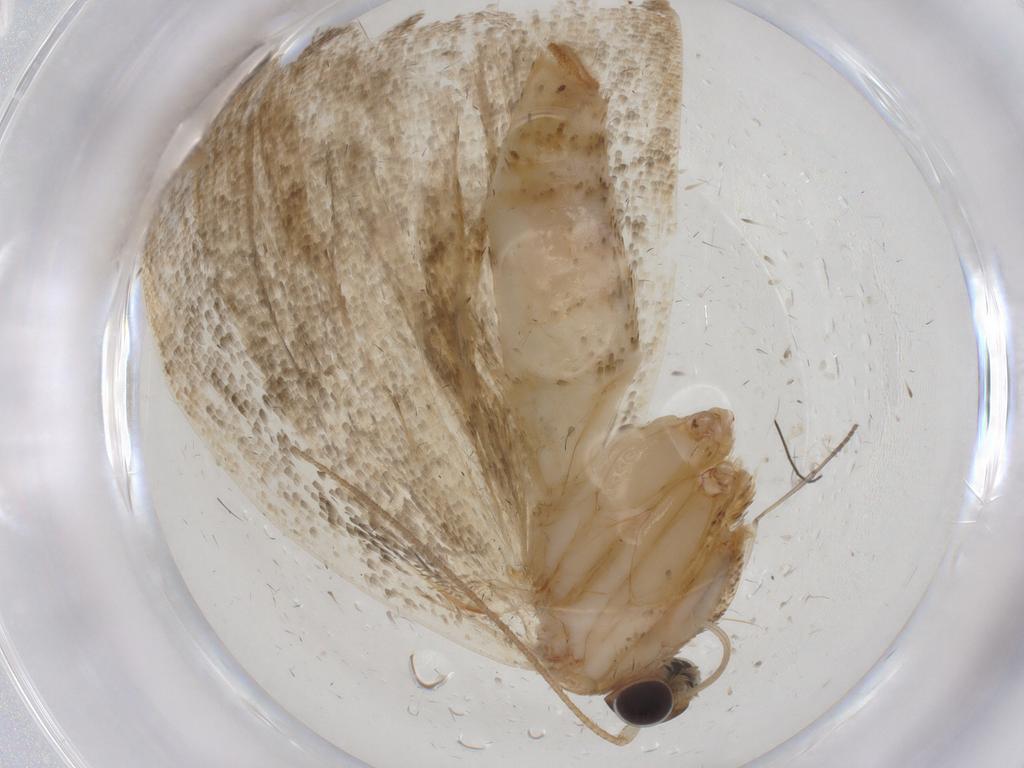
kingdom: Animalia
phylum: Arthropoda
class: Insecta
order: Lepidoptera
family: Tortricidae
